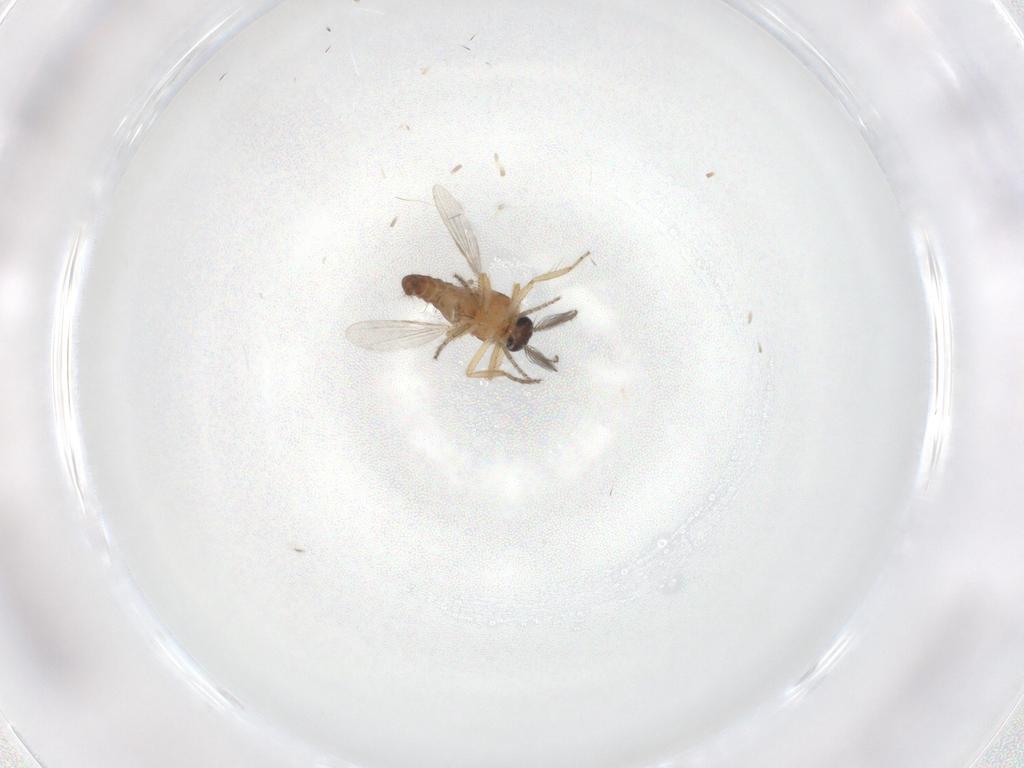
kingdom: Animalia
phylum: Arthropoda
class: Insecta
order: Diptera
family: Ceratopogonidae
